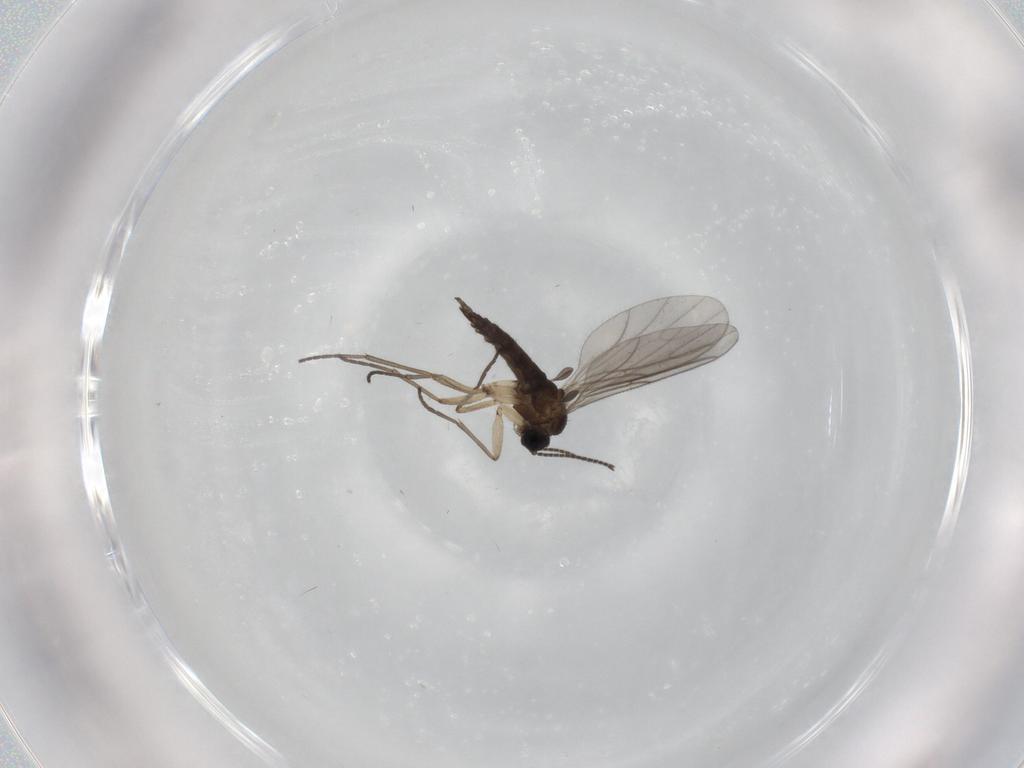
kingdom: Animalia
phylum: Arthropoda
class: Insecta
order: Diptera
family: Sciaridae
